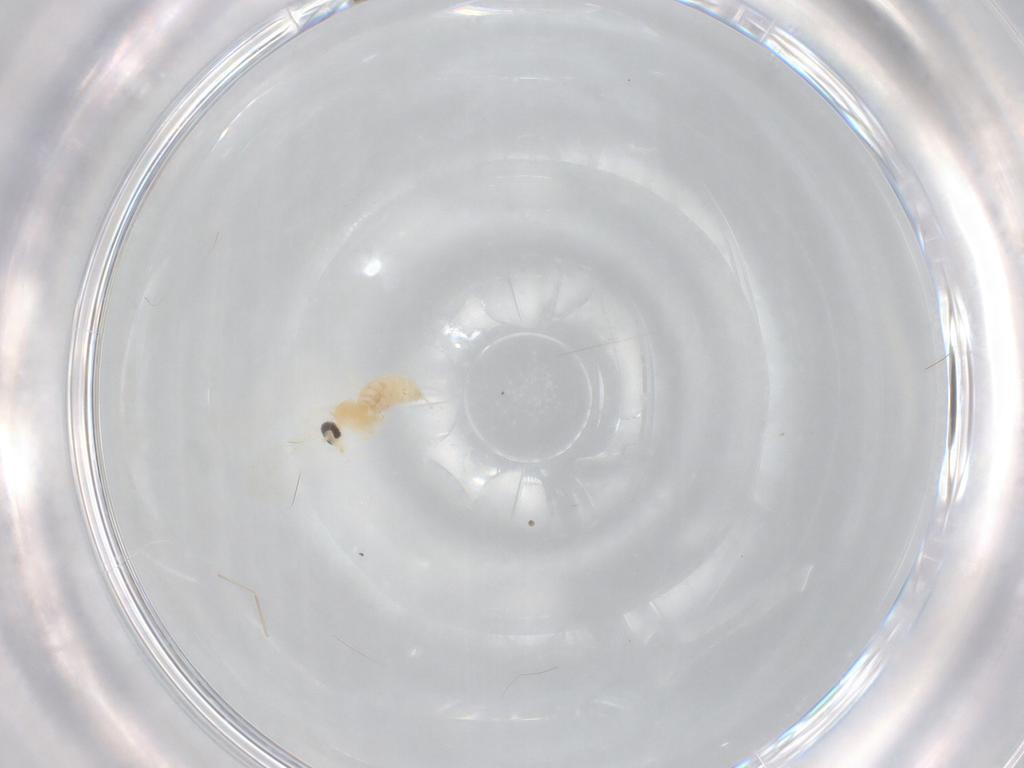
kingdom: Animalia
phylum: Arthropoda
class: Insecta
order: Diptera
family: Cecidomyiidae
